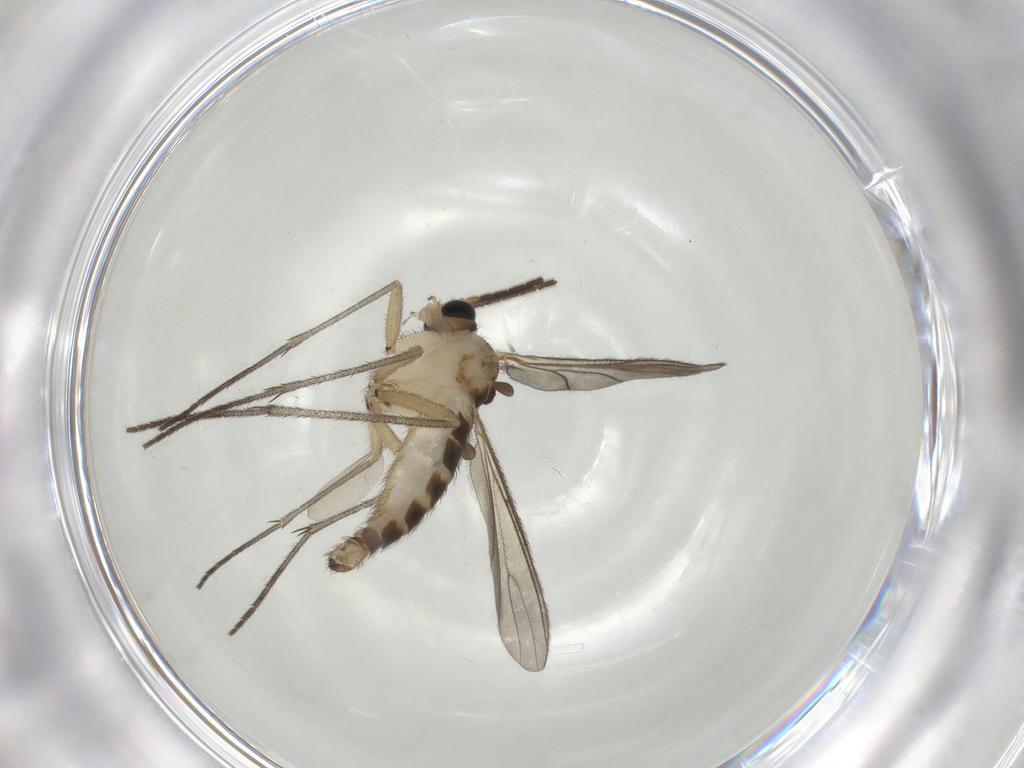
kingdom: Animalia
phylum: Arthropoda
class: Insecta
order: Diptera
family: Sciaridae
